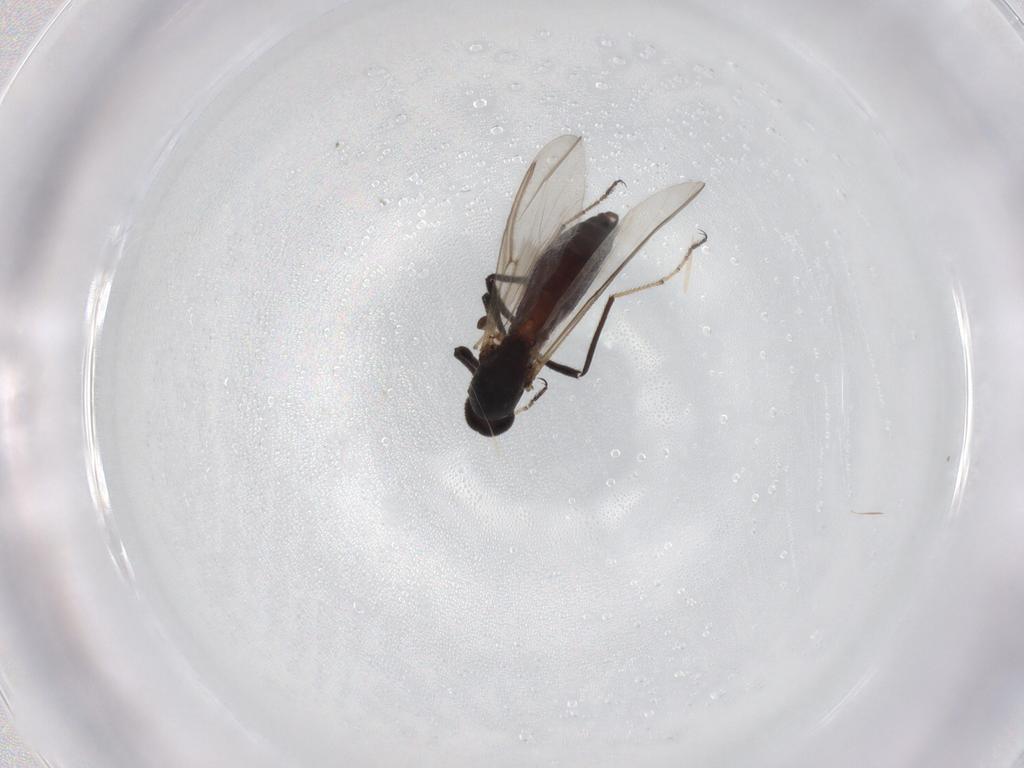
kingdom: Animalia
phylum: Arthropoda
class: Insecta
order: Diptera
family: Ceratopogonidae
